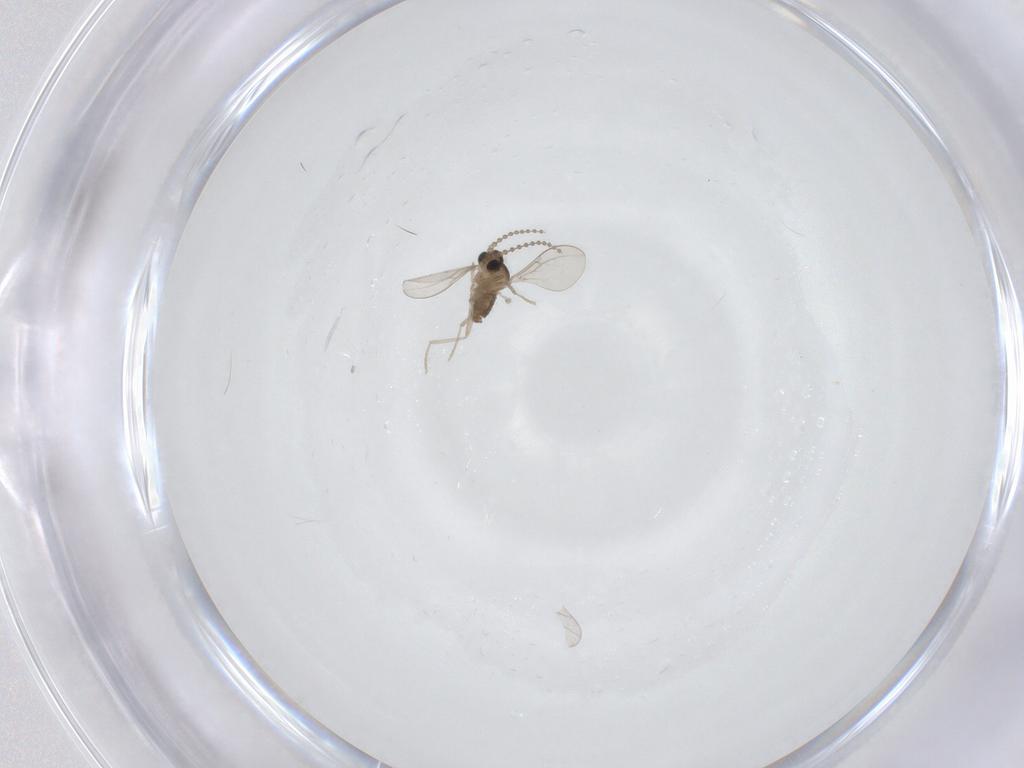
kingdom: Animalia
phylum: Arthropoda
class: Insecta
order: Diptera
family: Cecidomyiidae
